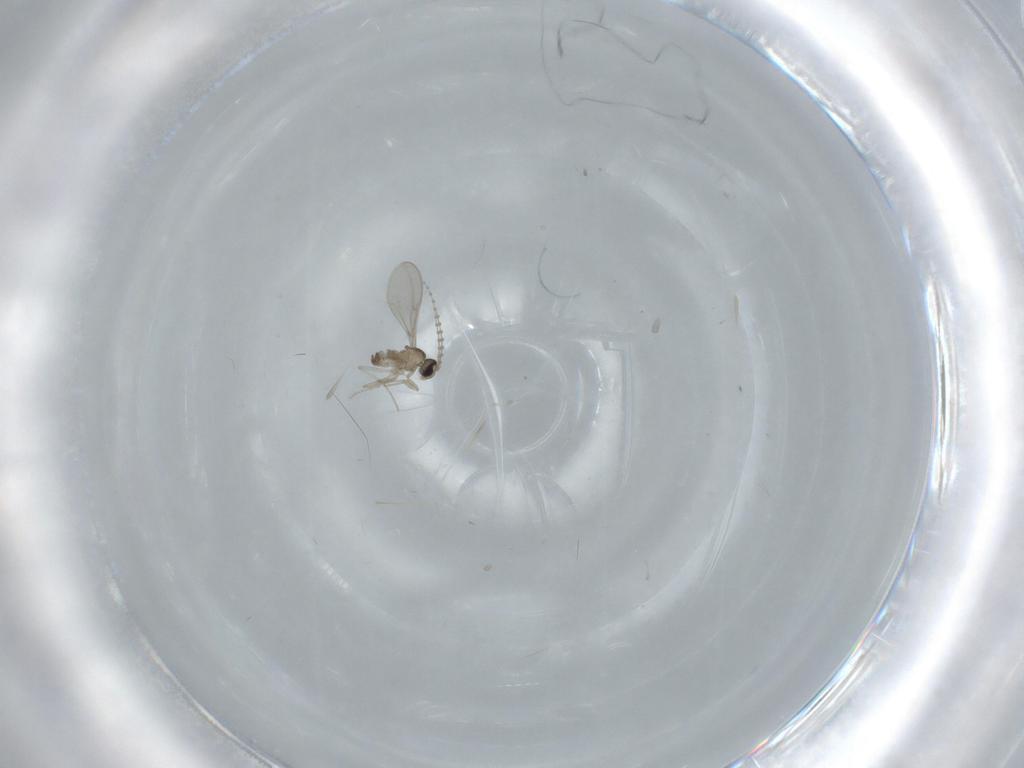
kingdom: Animalia
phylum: Arthropoda
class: Insecta
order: Diptera
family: Cecidomyiidae
